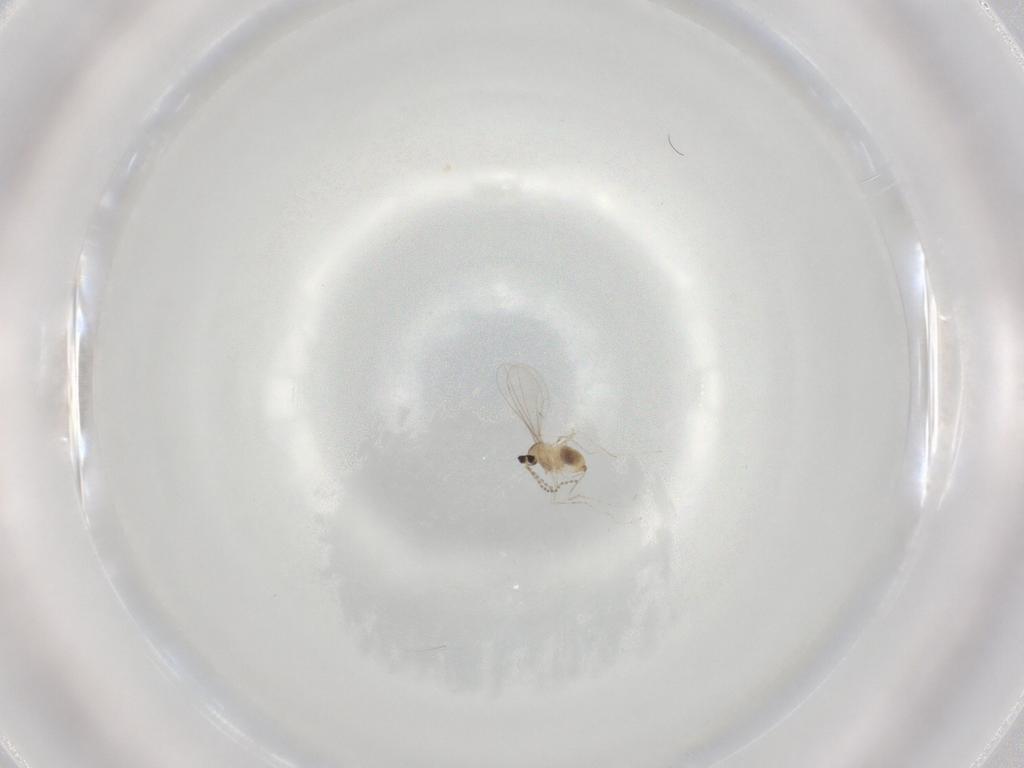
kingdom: Animalia
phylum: Arthropoda
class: Insecta
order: Diptera
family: Cecidomyiidae
